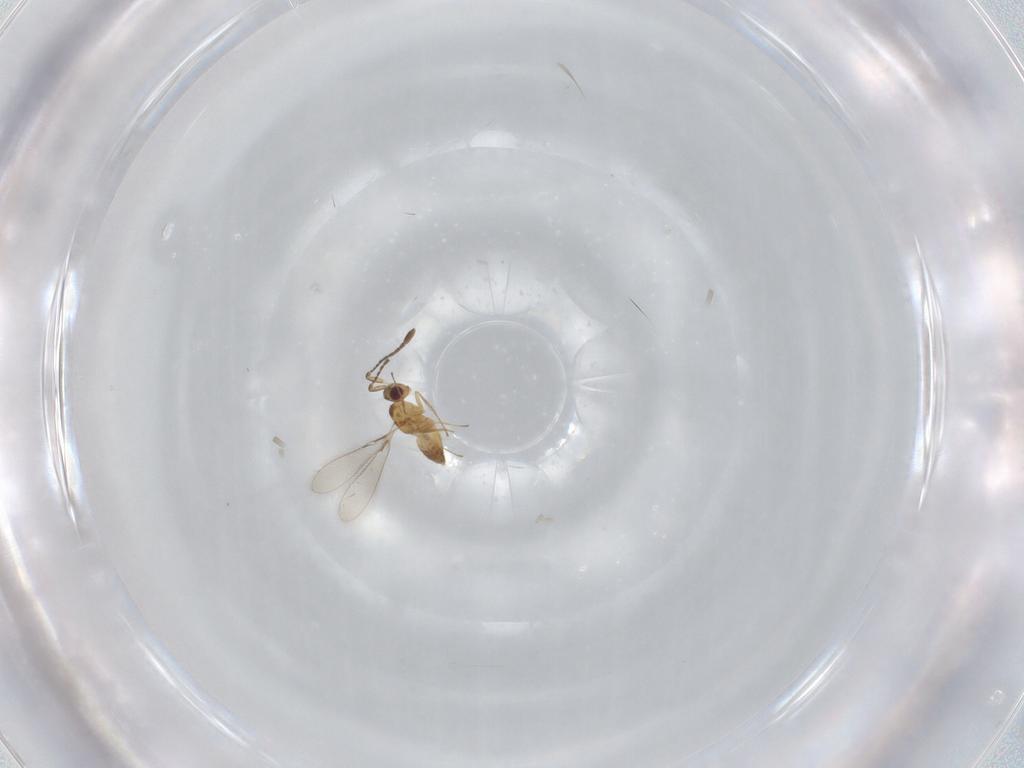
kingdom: Animalia
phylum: Arthropoda
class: Insecta
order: Hymenoptera
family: Mymaridae
